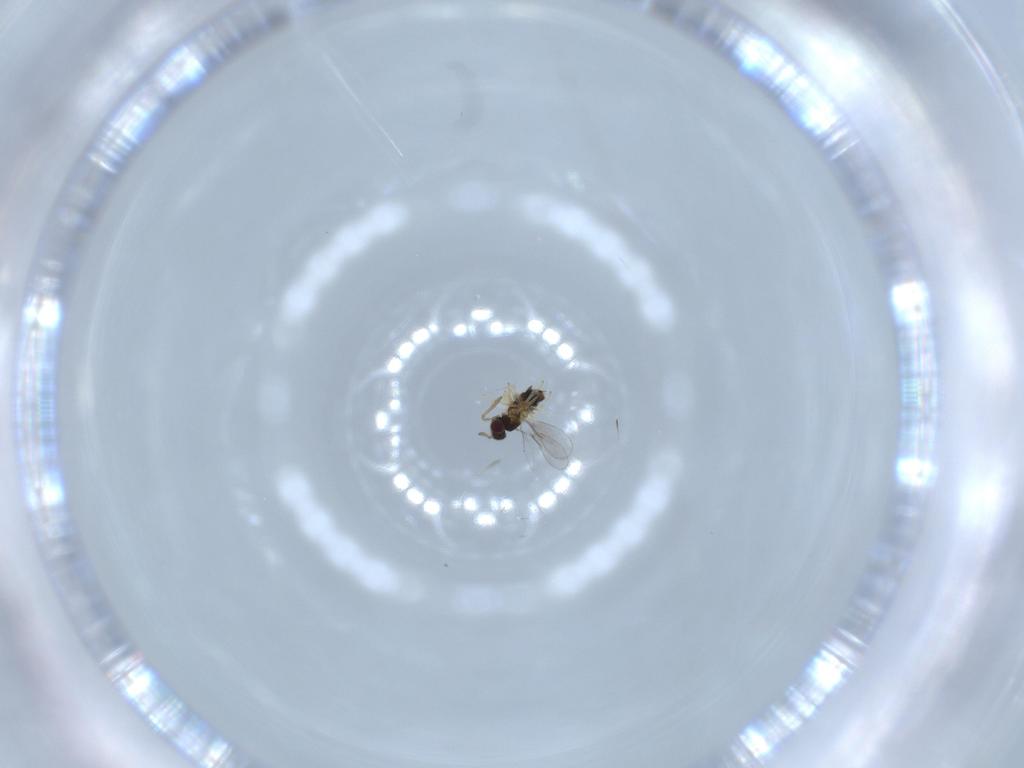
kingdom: Animalia
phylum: Arthropoda
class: Insecta
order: Hymenoptera
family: Aphelinidae
